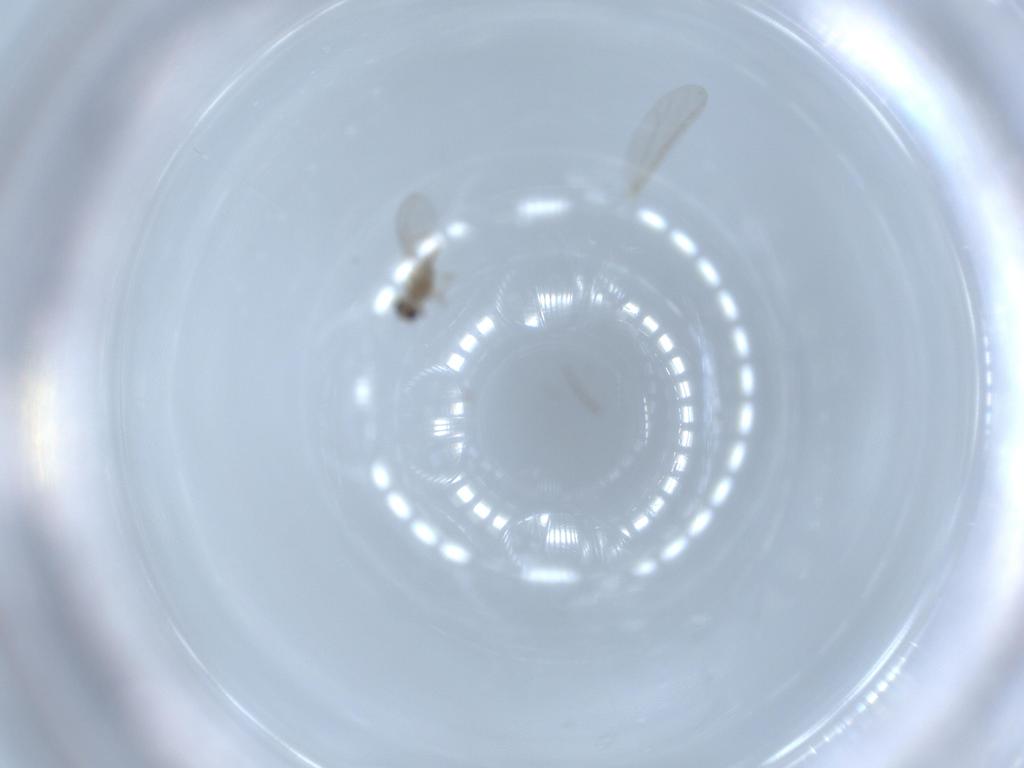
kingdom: Animalia
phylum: Arthropoda
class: Insecta
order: Diptera
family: Cecidomyiidae
